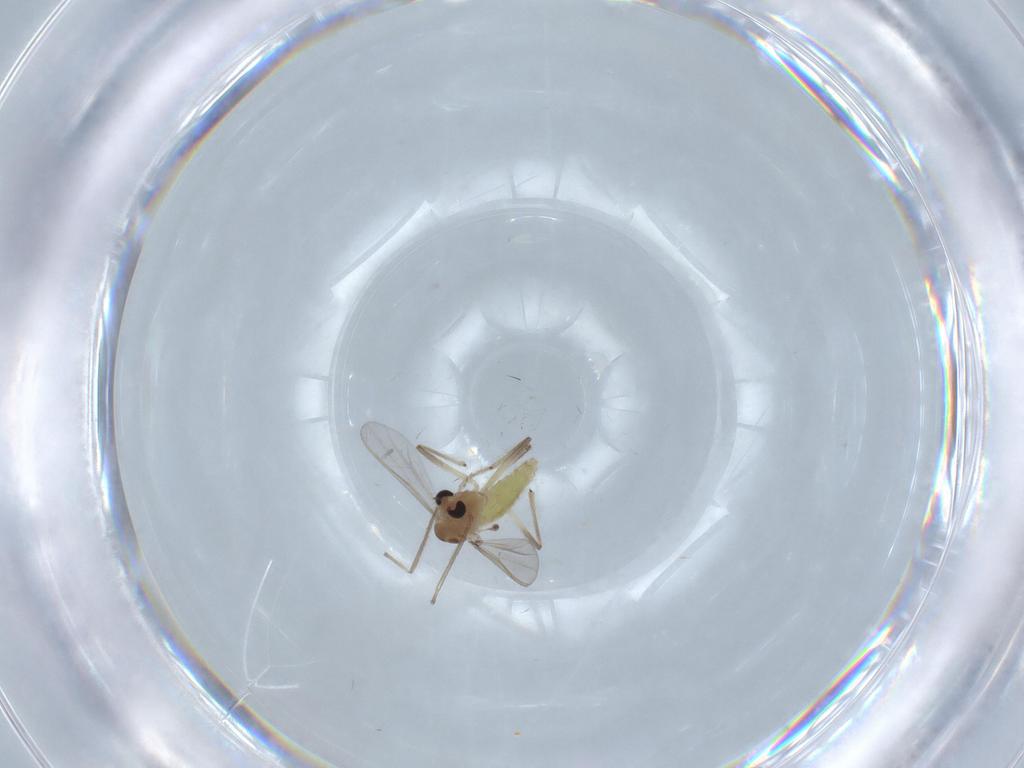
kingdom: Animalia
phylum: Arthropoda
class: Insecta
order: Diptera
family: Chironomidae
